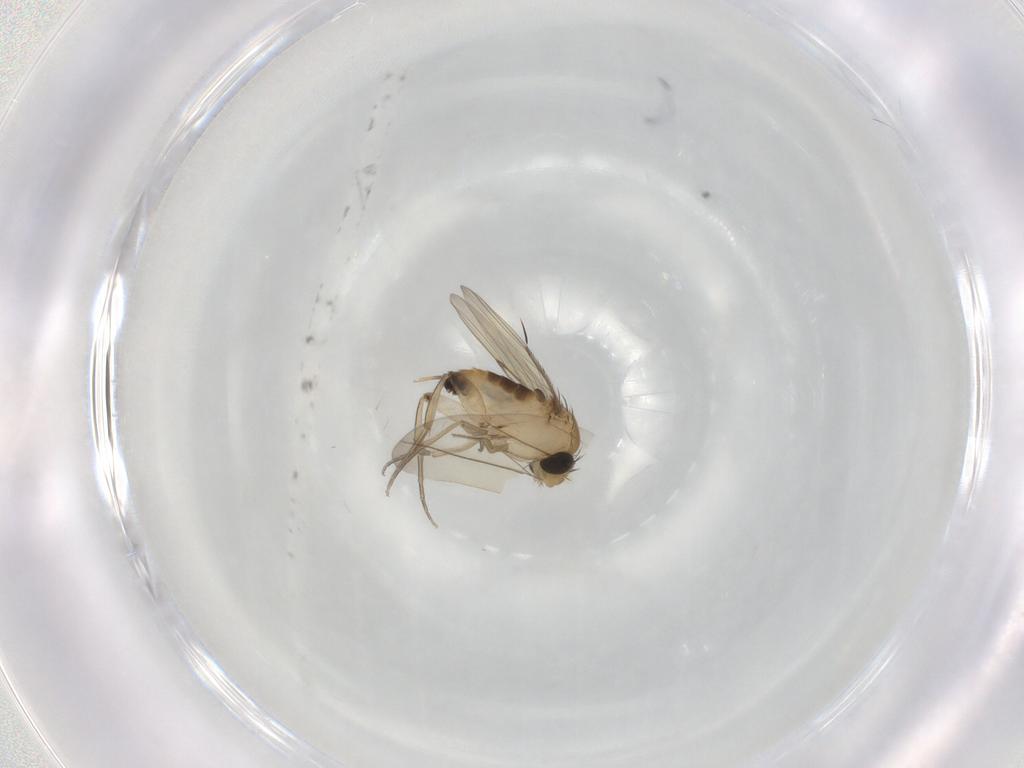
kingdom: Animalia
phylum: Arthropoda
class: Insecta
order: Diptera
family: Phoridae
